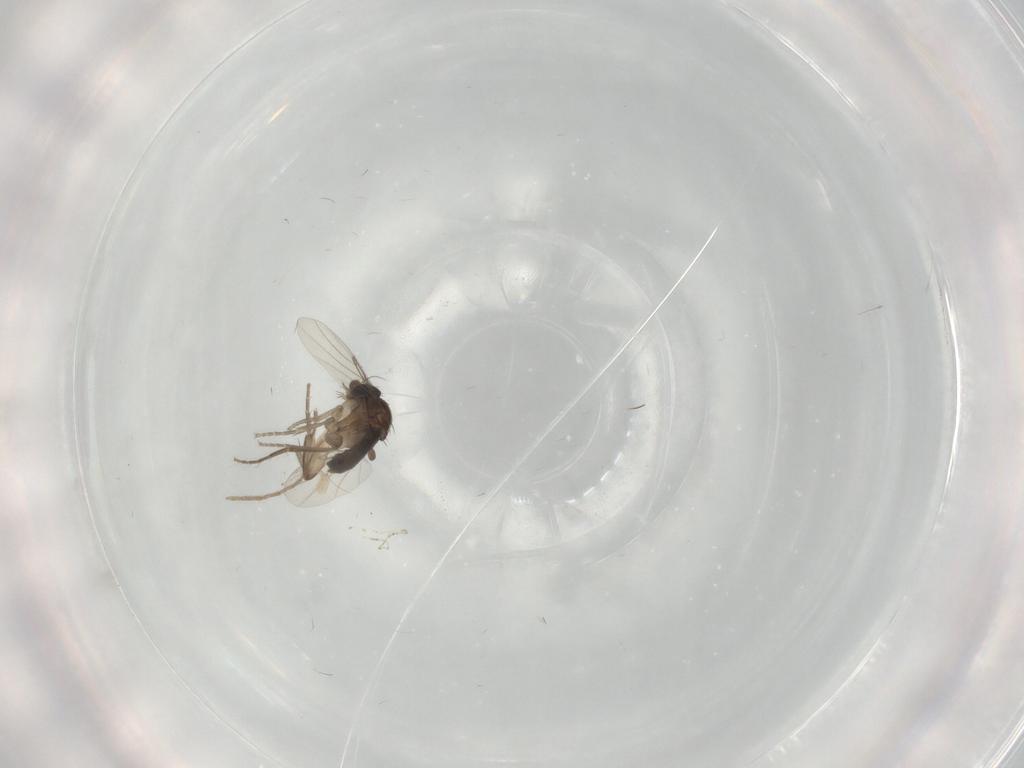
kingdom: Animalia
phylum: Arthropoda
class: Insecta
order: Diptera
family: Phoridae
